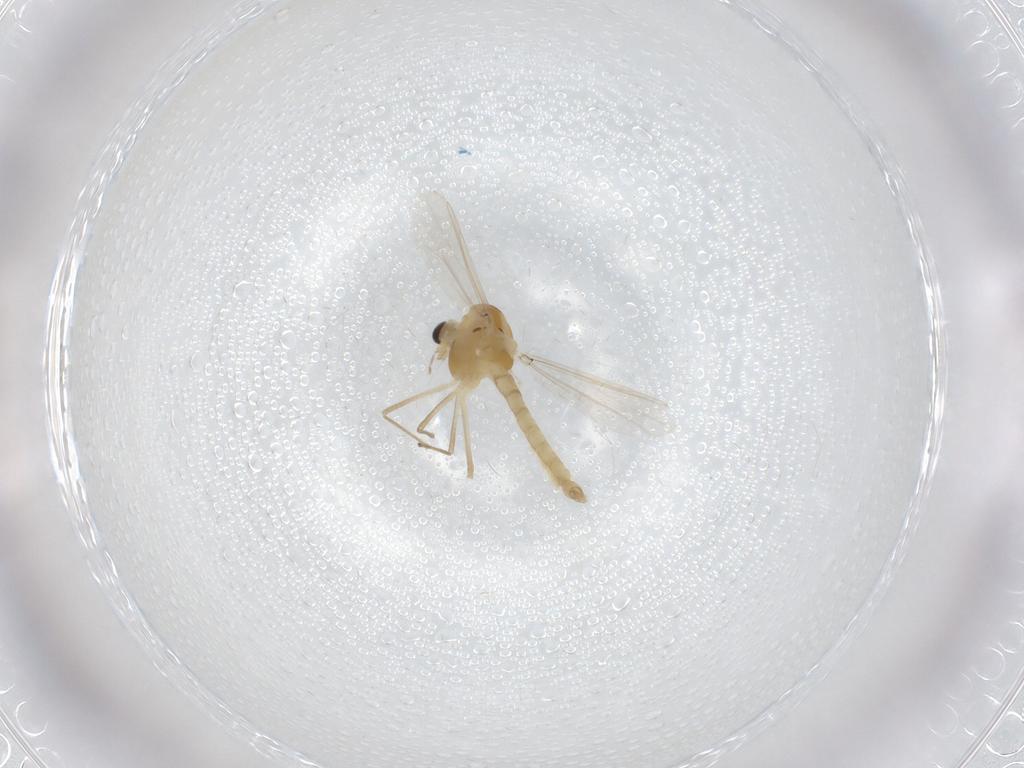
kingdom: Animalia
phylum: Arthropoda
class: Insecta
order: Diptera
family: Chironomidae
